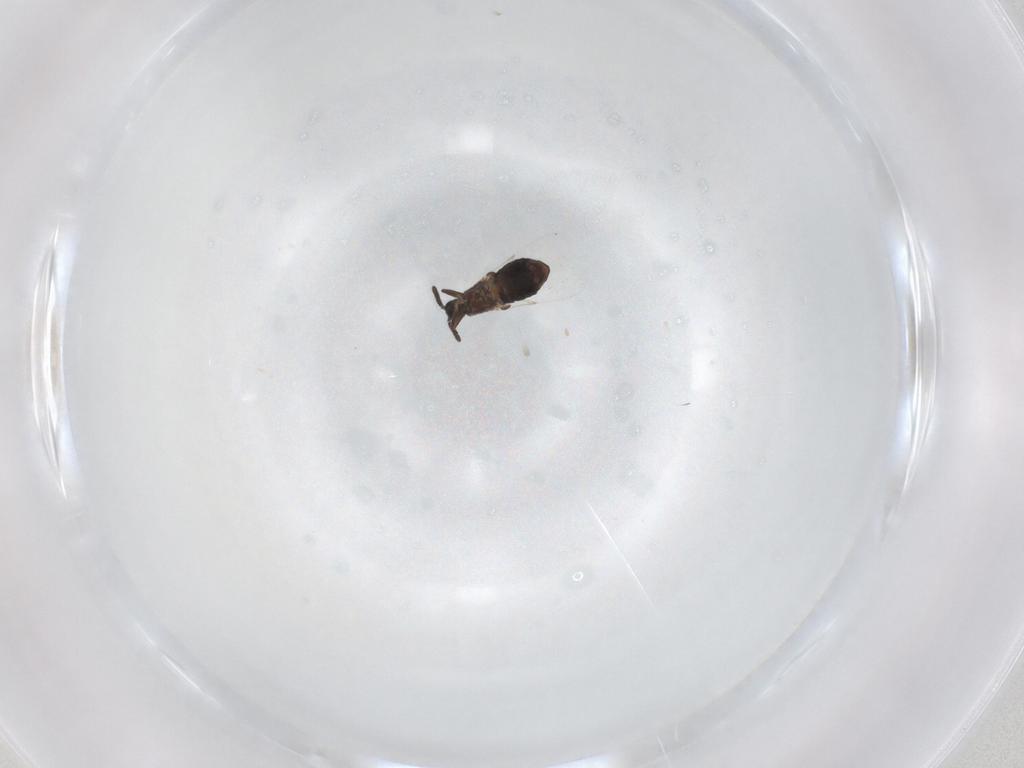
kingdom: Animalia
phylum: Arthropoda
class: Insecta
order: Diptera
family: Scatopsidae
